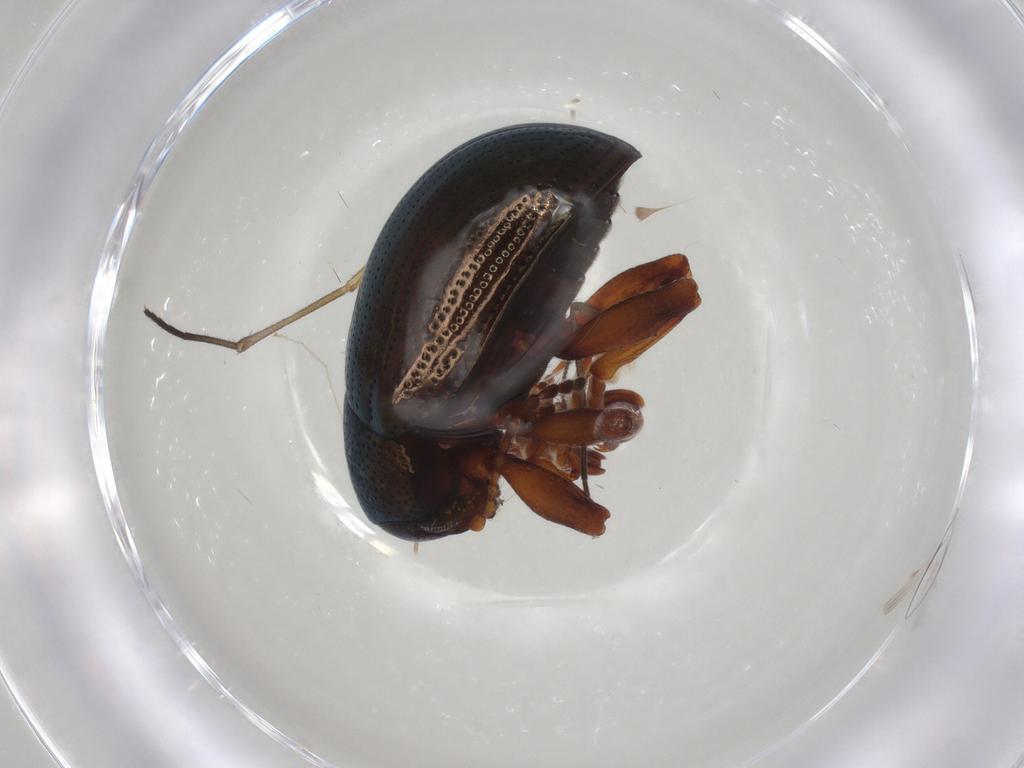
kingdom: Animalia
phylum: Arthropoda
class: Insecta
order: Coleoptera
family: Chrysomelidae
